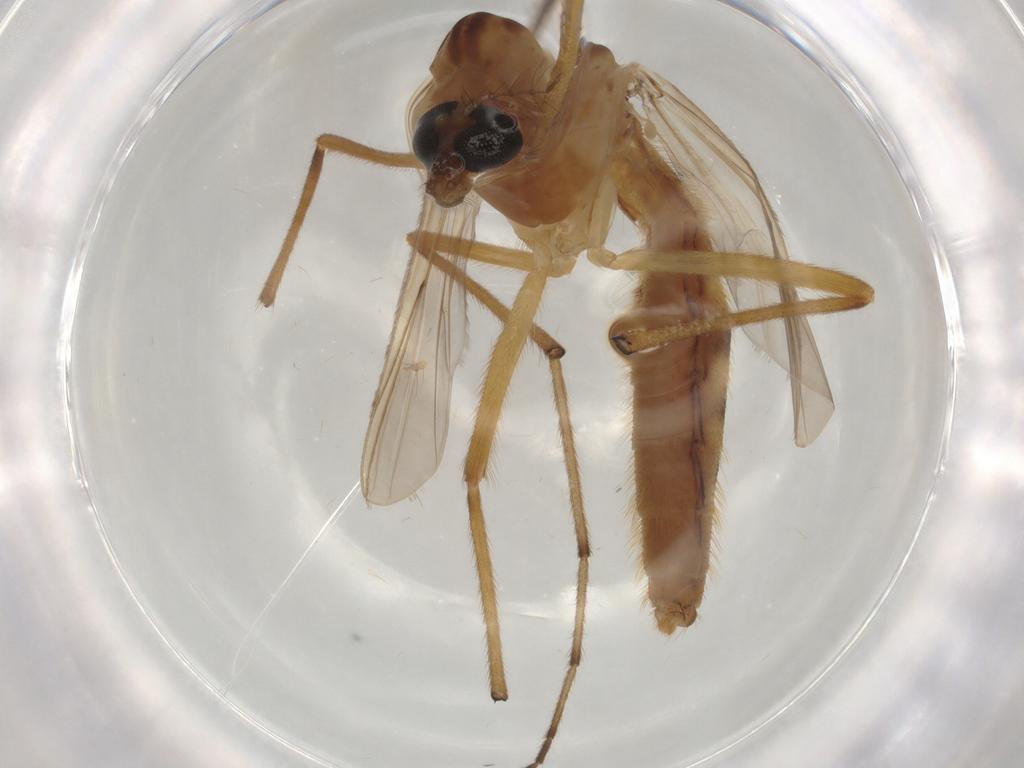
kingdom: Animalia
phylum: Arthropoda
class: Insecta
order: Diptera
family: Chironomidae
